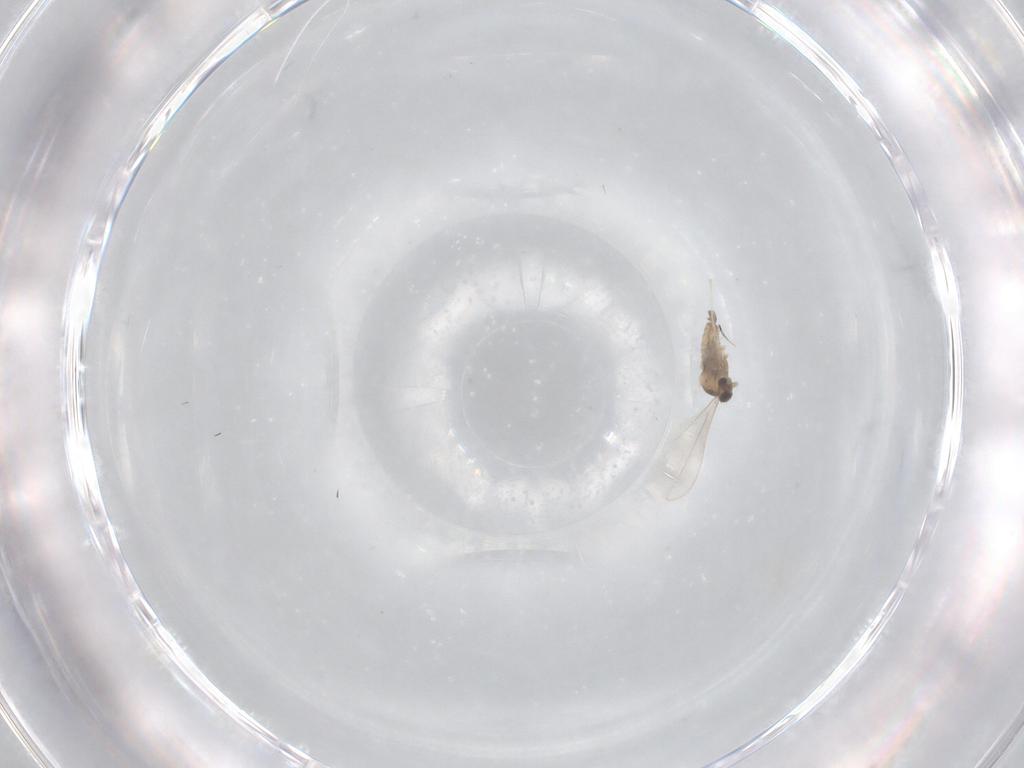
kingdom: Animalia
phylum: Arthropoda
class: Insecta
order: Diptera
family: Cecidomyiidae
